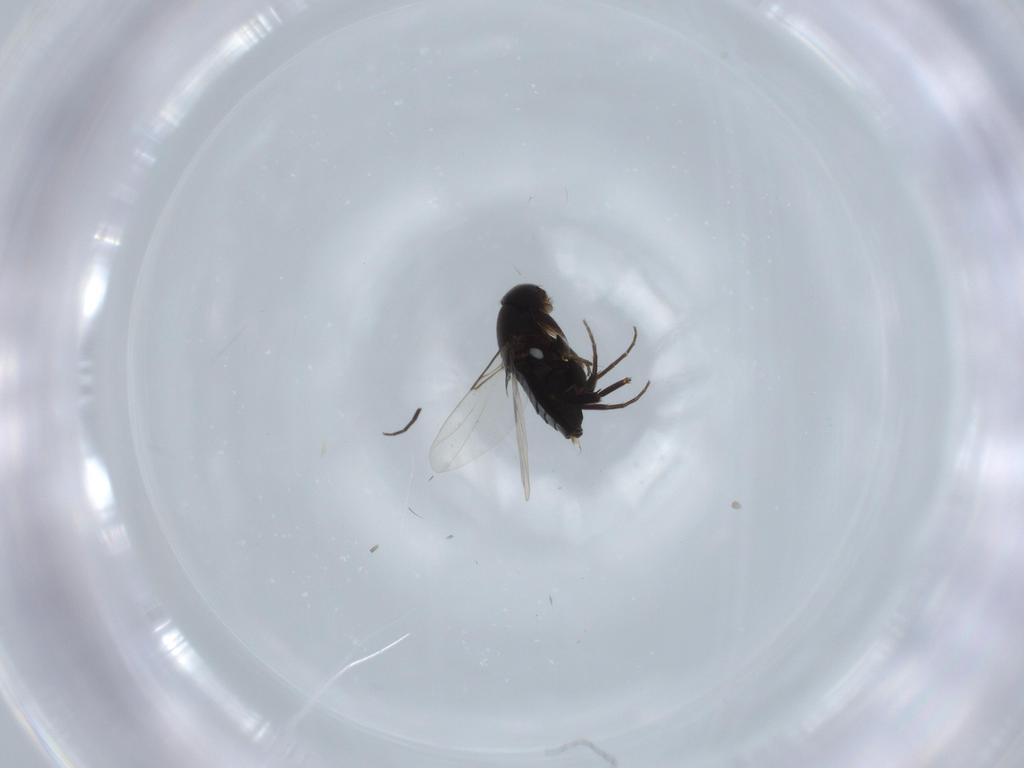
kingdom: Animalia
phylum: Arthropoda
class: Insecta
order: Diptera
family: Phoridae
